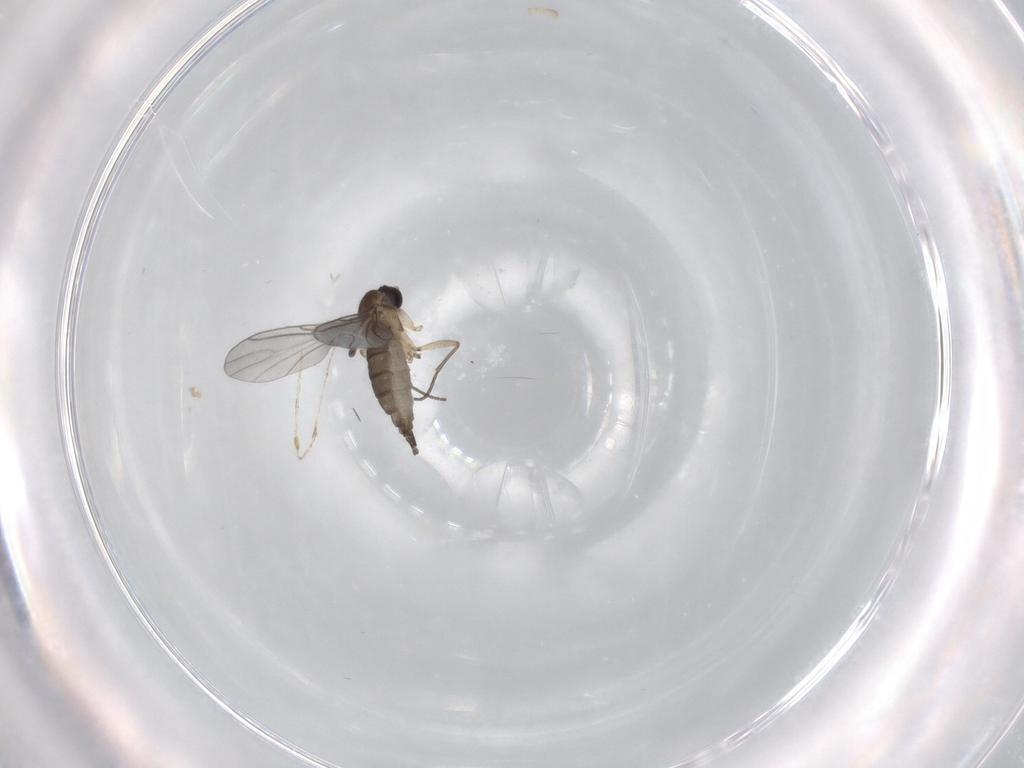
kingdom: Animalia
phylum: Arthropoda
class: Insecta
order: Diptera
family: Sciaridae
